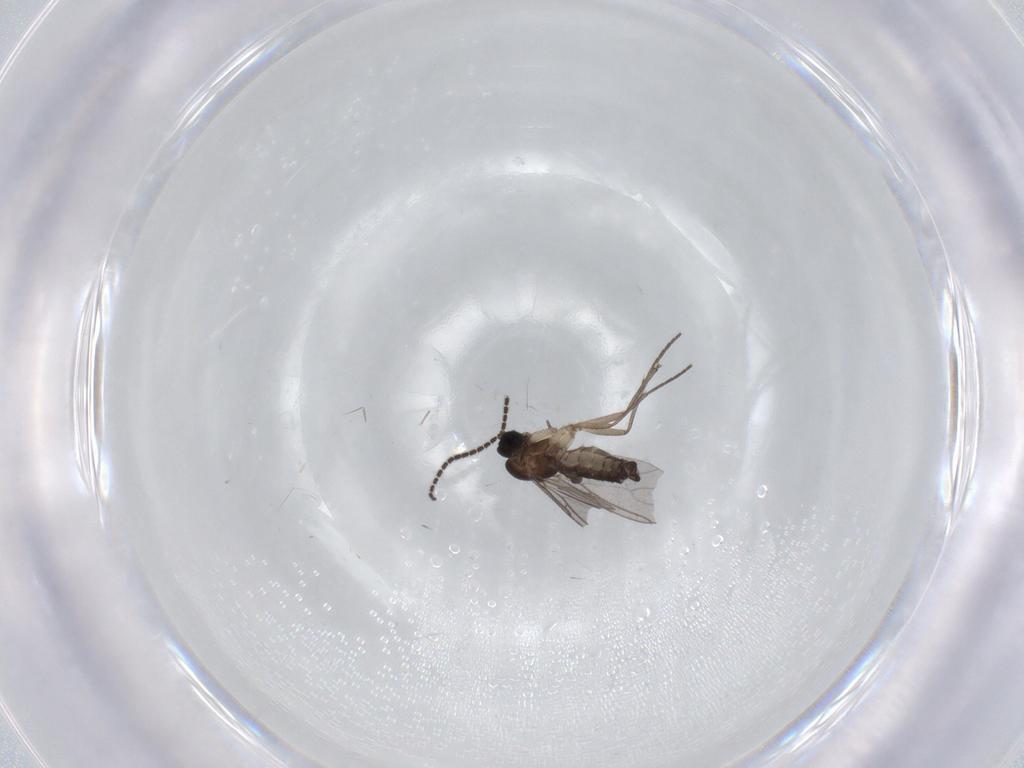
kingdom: Animalia
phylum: Arthropoda
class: Insecta
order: Diptera
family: Sciaridae
